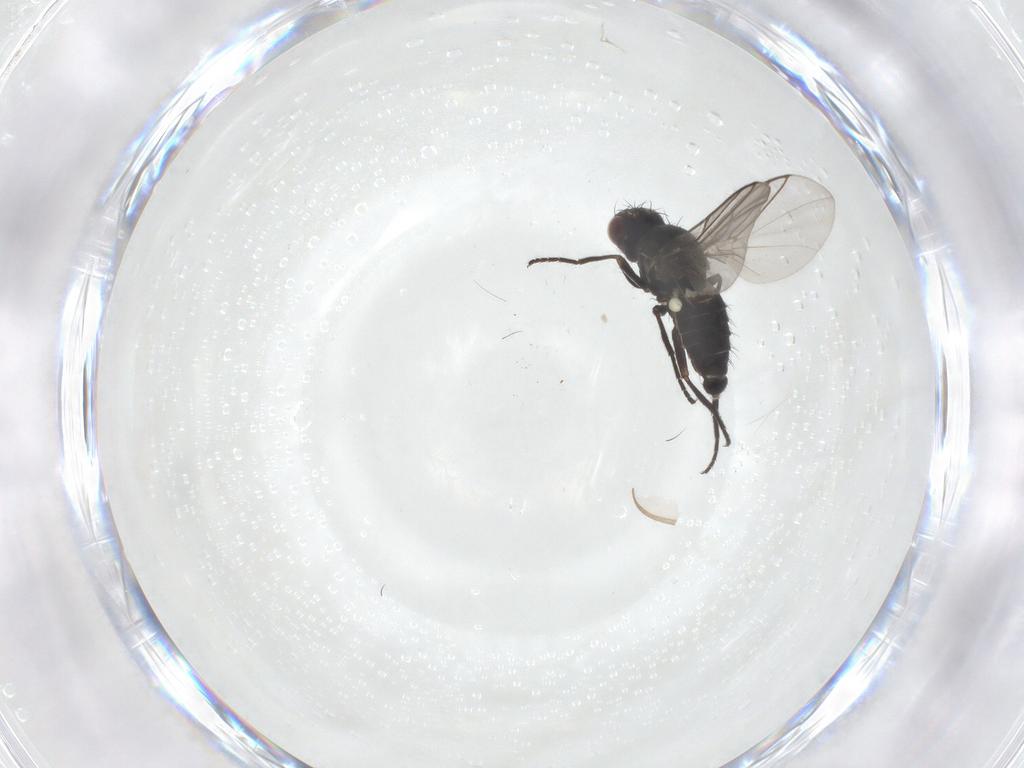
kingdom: Animalia
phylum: Arthropoda
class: Insecta
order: Diptera
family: Agromyzidae
